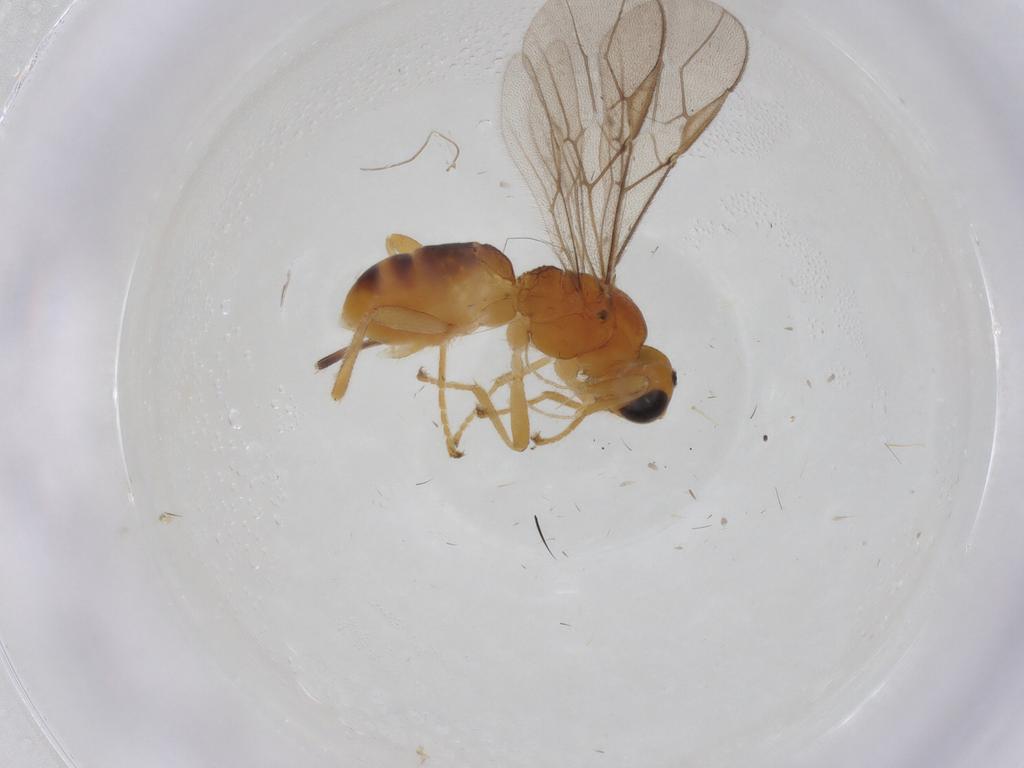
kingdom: Animalia
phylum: Arthropoda
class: Insecta
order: Hymenoptera
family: Braconidae
